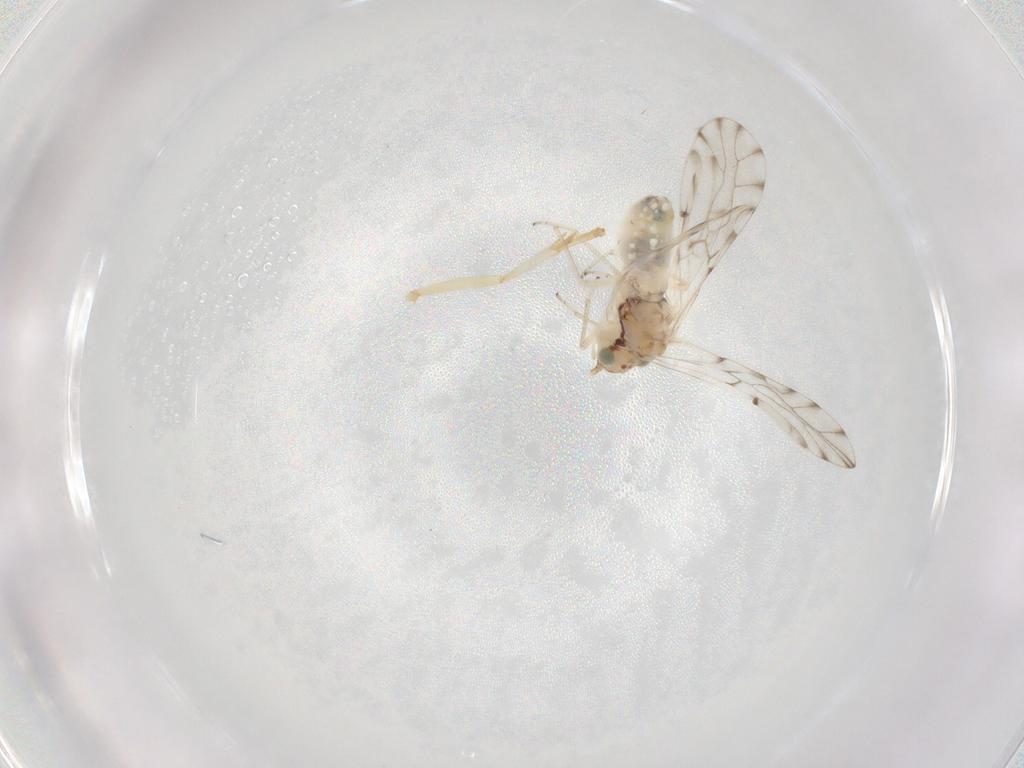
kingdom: Animalia
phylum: Arthropoda
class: Insecta
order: Psocodea
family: Ectopsocidae
